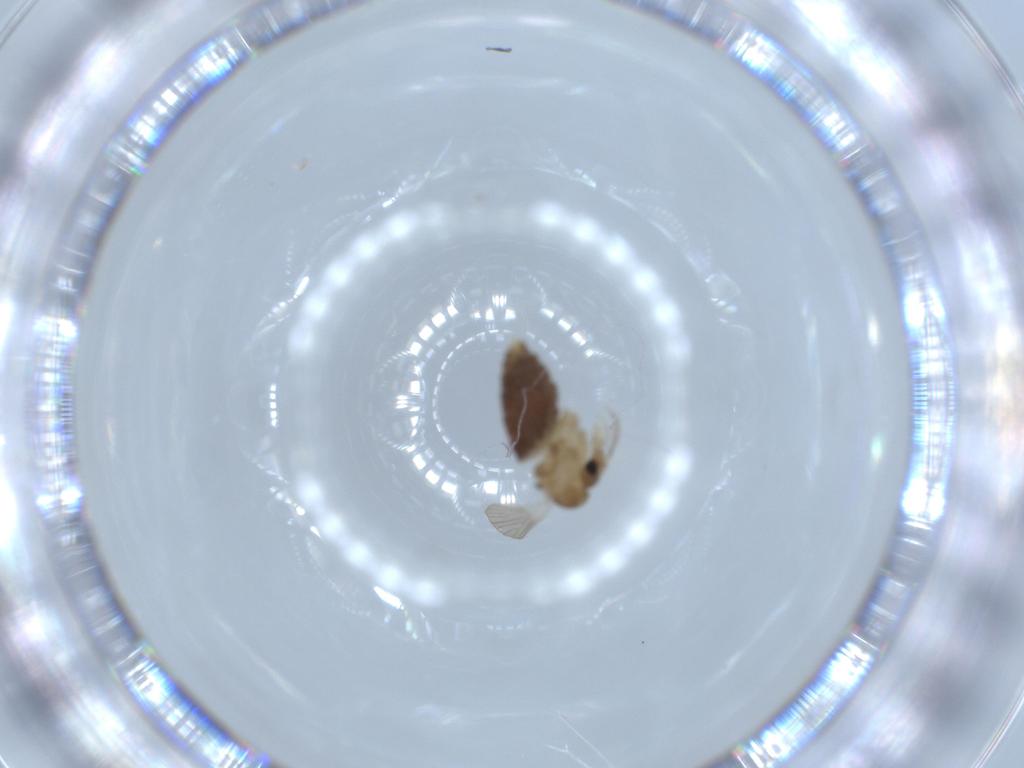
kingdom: Animalia
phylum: Arthropoda
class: Insecta
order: Diptera
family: Psychodidae
